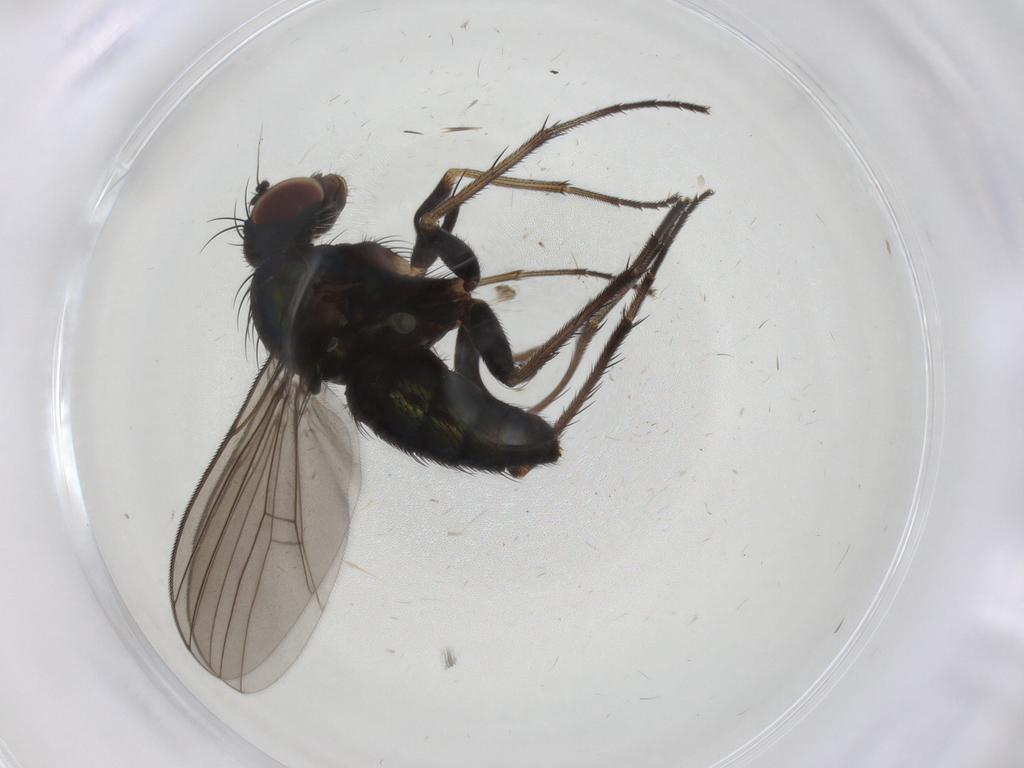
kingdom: Animalia
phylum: Arthropoda
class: Insecta
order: Diptera
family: Dolichopodidae
